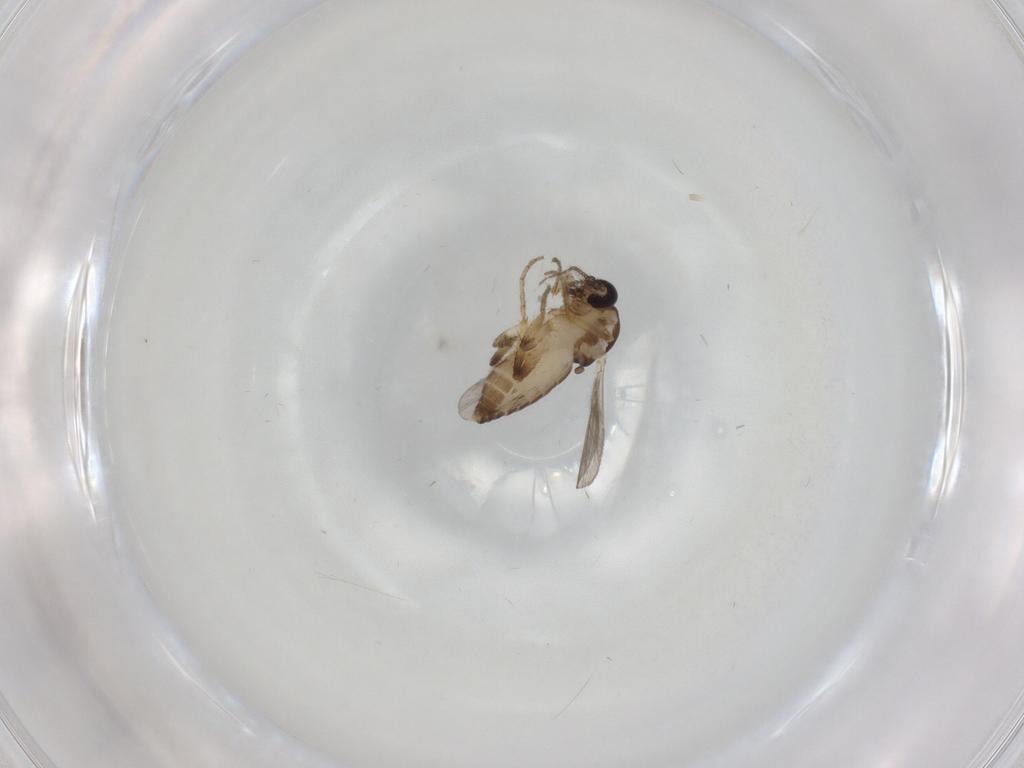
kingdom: Animalia
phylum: Arthropoda
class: Insecta
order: Diptera
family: Ceratopogonidae
